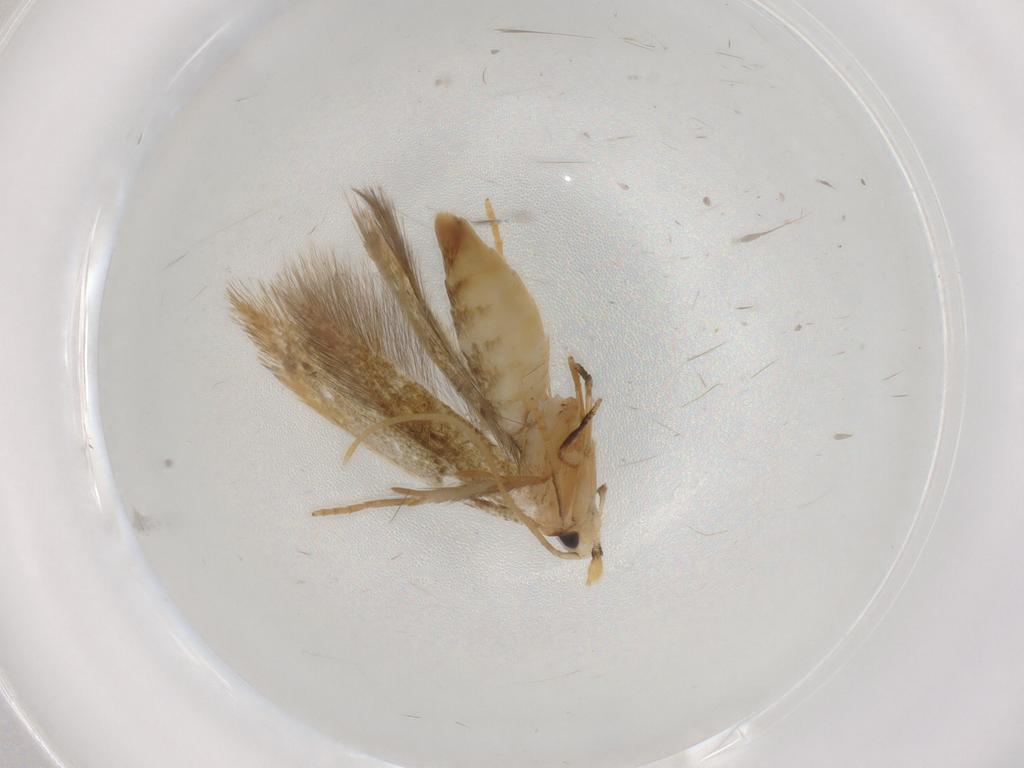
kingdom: Animalia
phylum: Arthropoda
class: Insecta
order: Lepidoptera
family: Tineidae
